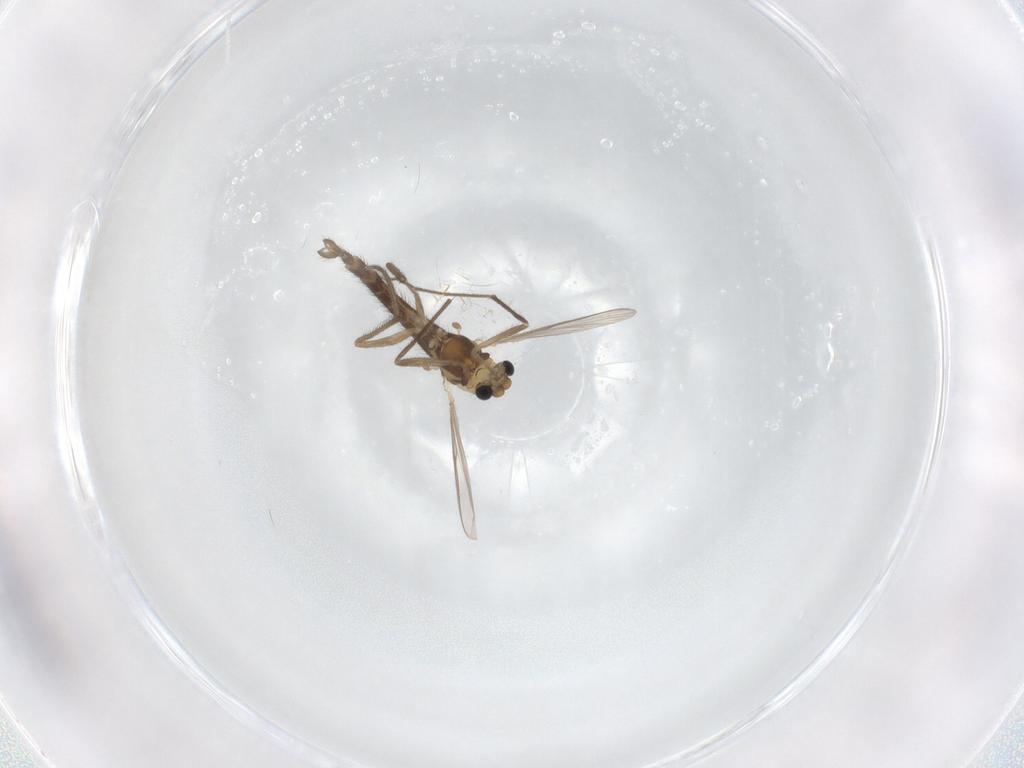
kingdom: Animalia
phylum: Arthropoda
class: Insecta
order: Diptera
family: Chironomidae
